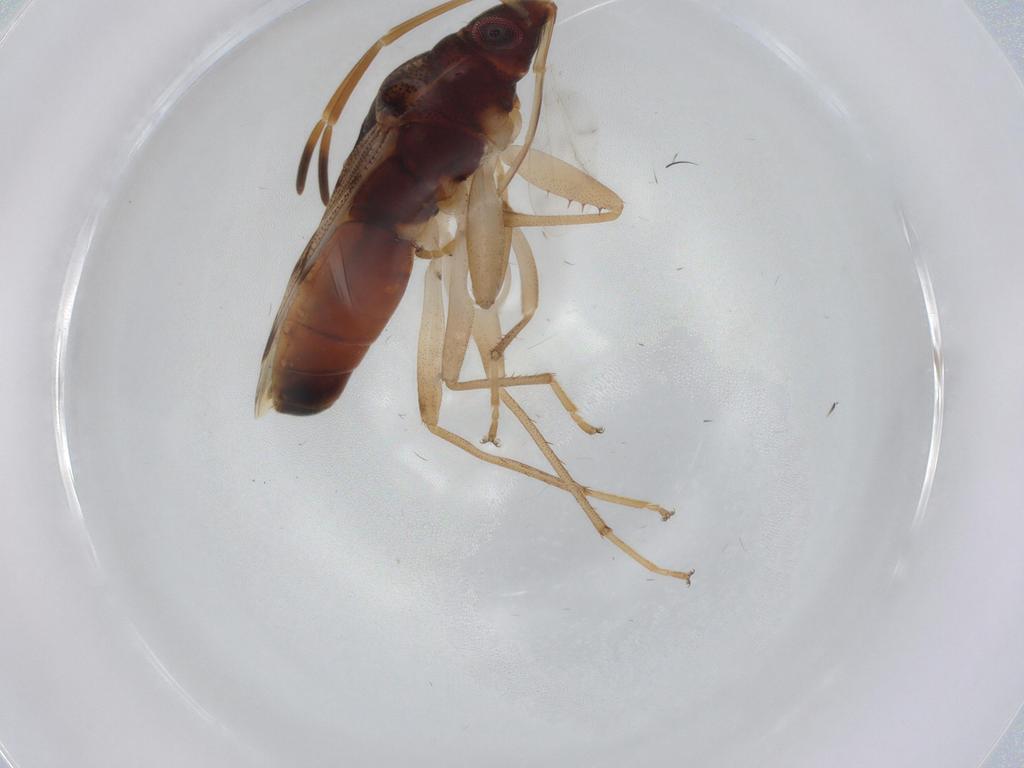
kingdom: Animalia
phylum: Arthropoda
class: Insecta
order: Hemiptera
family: Rhyparochromidae
